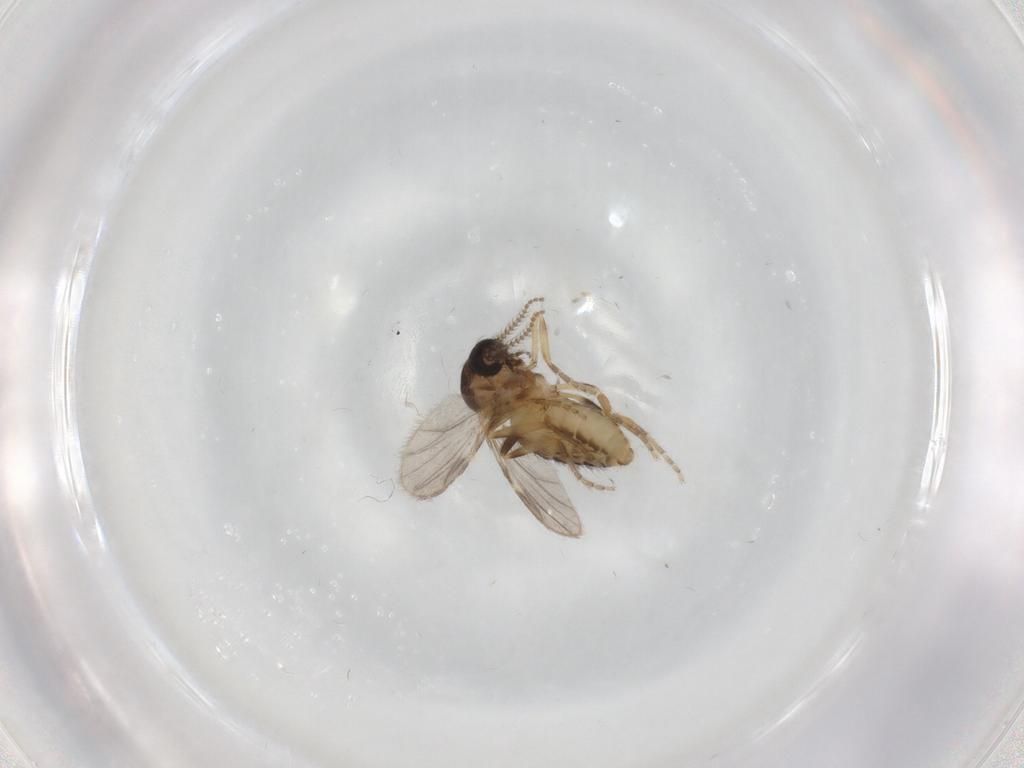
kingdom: Animalia
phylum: Arthropoda
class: Insecta
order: Diptera
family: Ceratopogonidae
